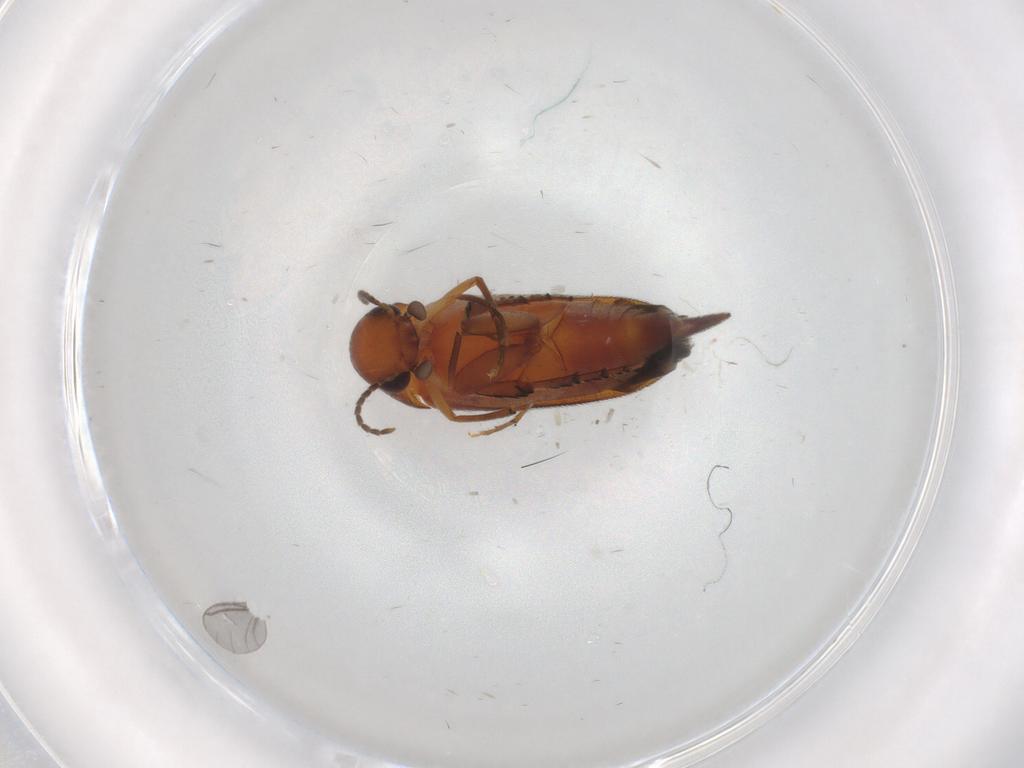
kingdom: Animalia
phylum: Arthropoda
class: Insecta
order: Coleoptera
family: Mordellidae
